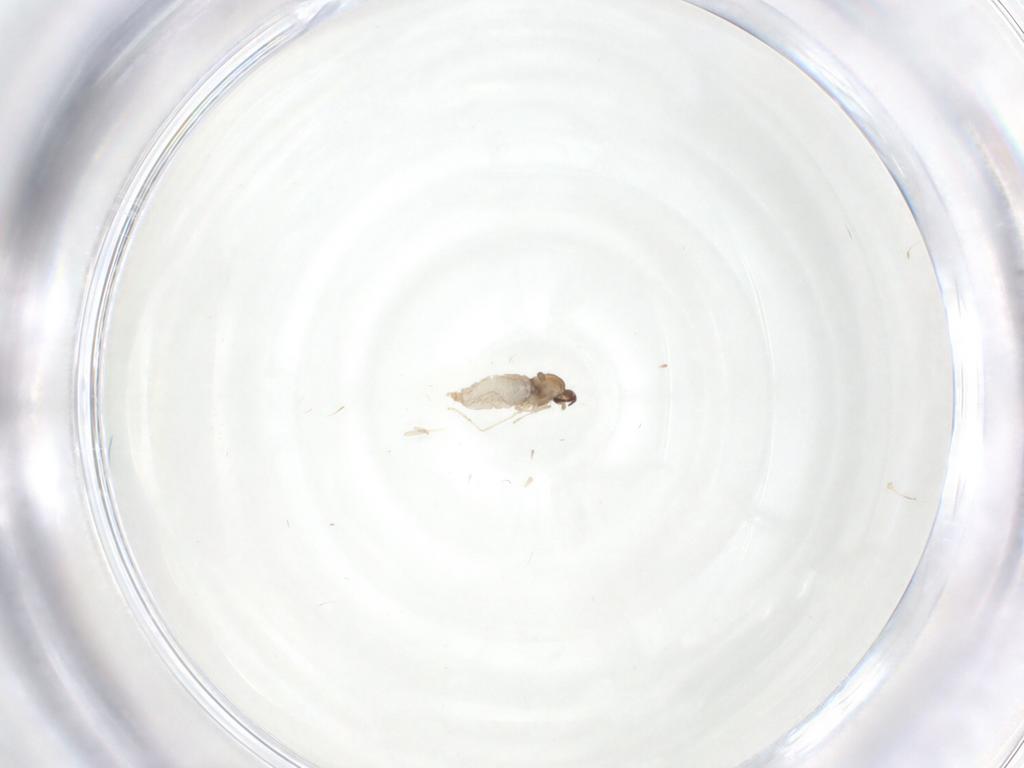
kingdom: Animalia
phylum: Arthropoda
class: Insecta
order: Diptera
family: Cecidomyiidae
